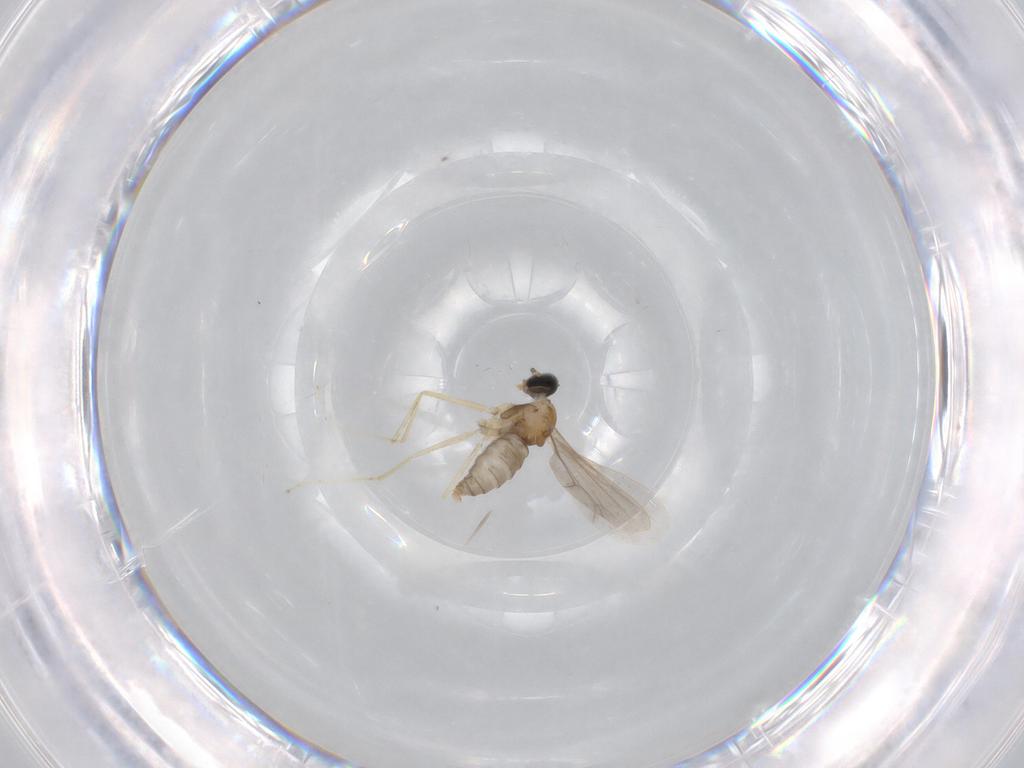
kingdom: Animalia
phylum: Arthropoda
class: Insecta
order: Diptera
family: Cecidomyiidae
